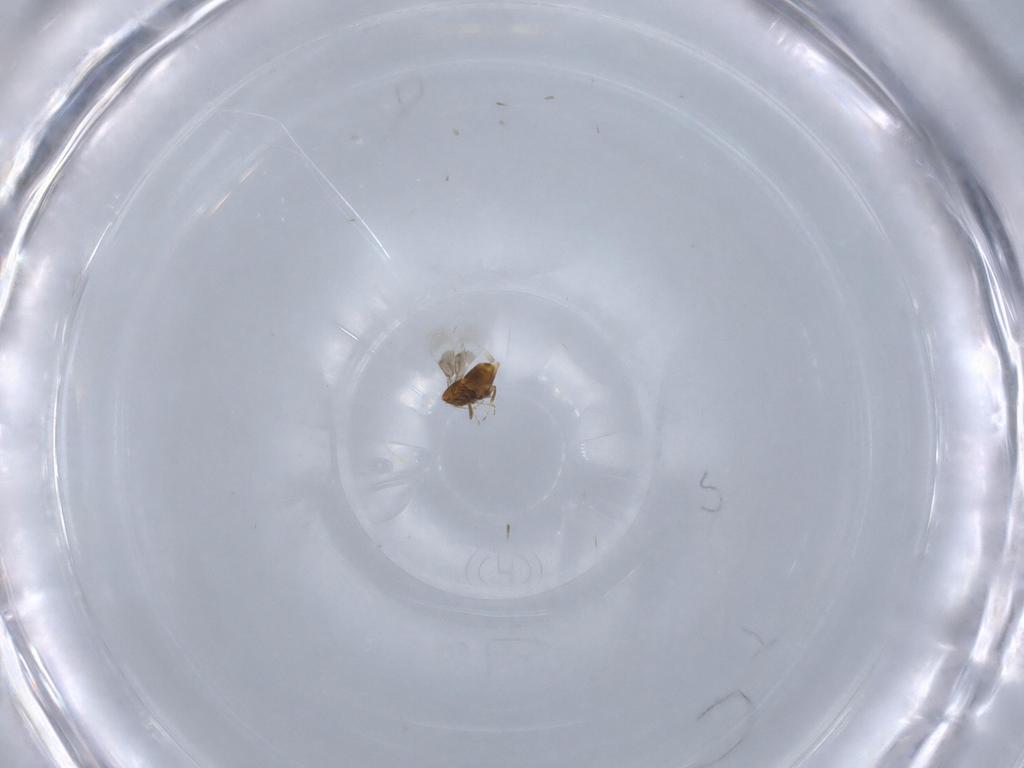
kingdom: Animalia
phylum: Arthropoda
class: Insecta
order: Hymenoptera
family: Trichogrammatidae
